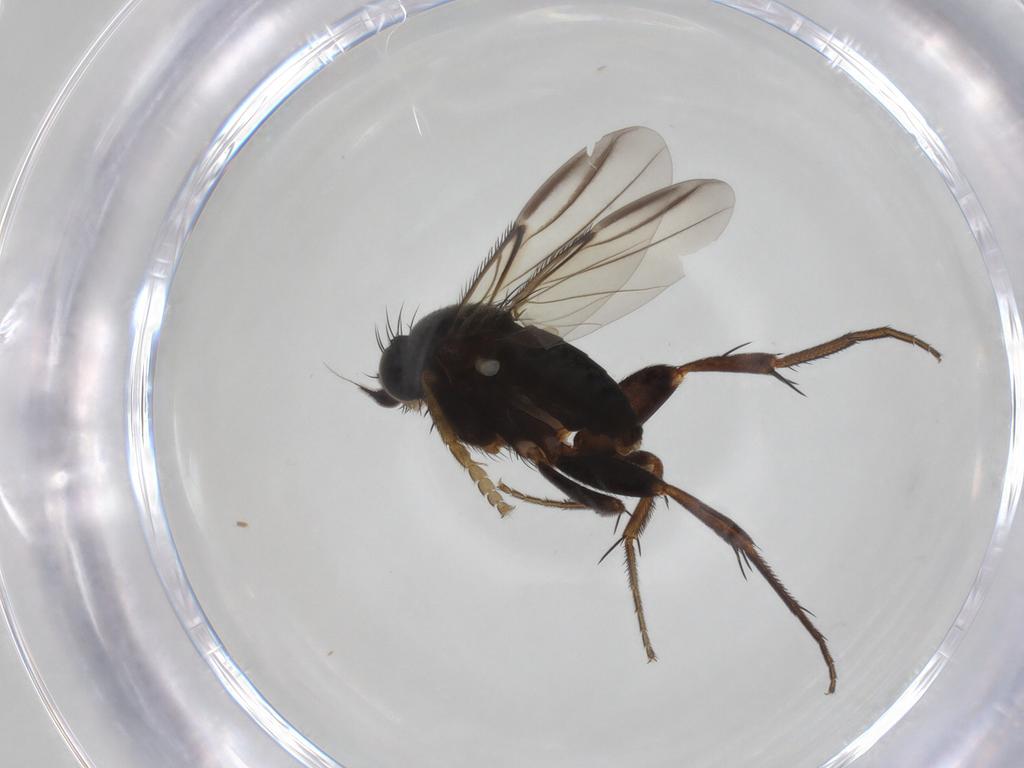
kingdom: Animalia
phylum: Arthropoda
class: Insecta
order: Diptera
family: Phoridae
